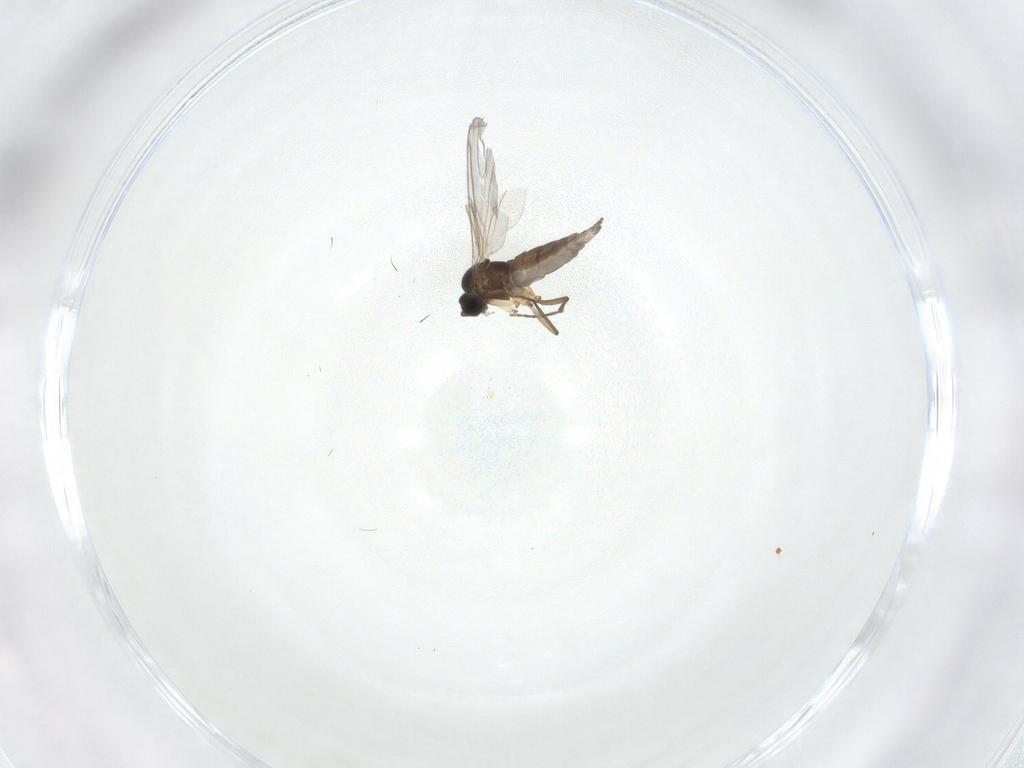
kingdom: Animalia
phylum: Arthropoda
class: Insecta
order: Diptera
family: Sciaridae
